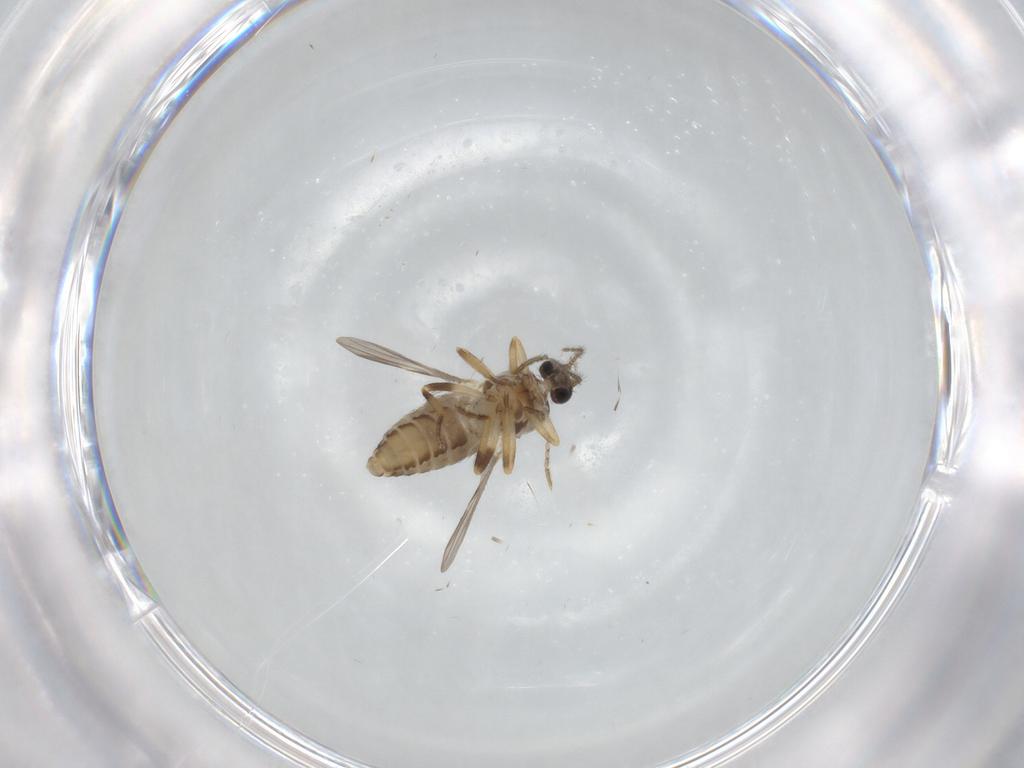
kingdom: Animalia
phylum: Arthropoda
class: Insecta
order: Diptera
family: Ceratopogonidae
